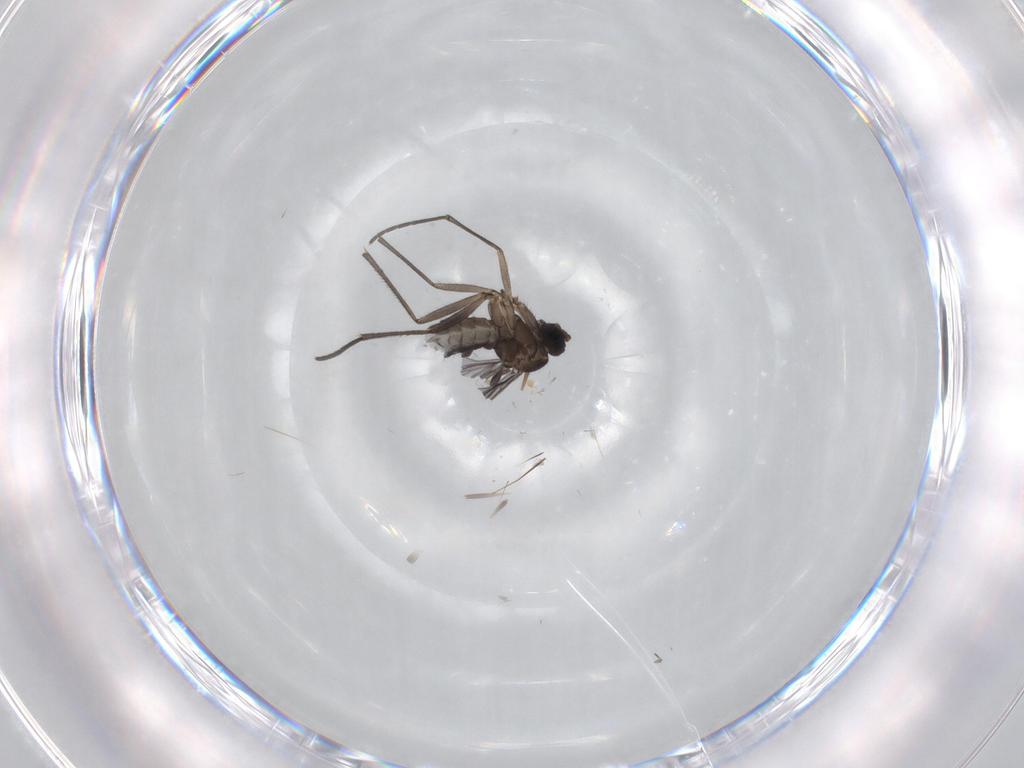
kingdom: Animalia
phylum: Arthropoda
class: Insecta
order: Diptera
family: Sciaridae
